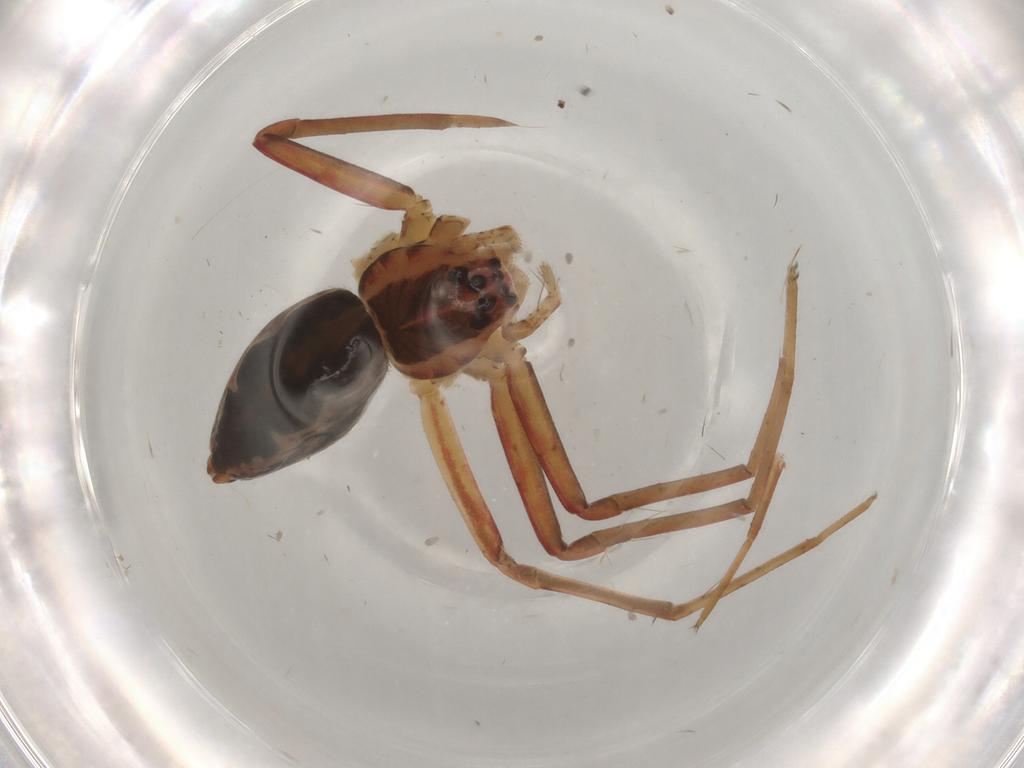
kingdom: Animalia
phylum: Arthropoda
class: Arachnida
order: Araneae
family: Pisauridae
